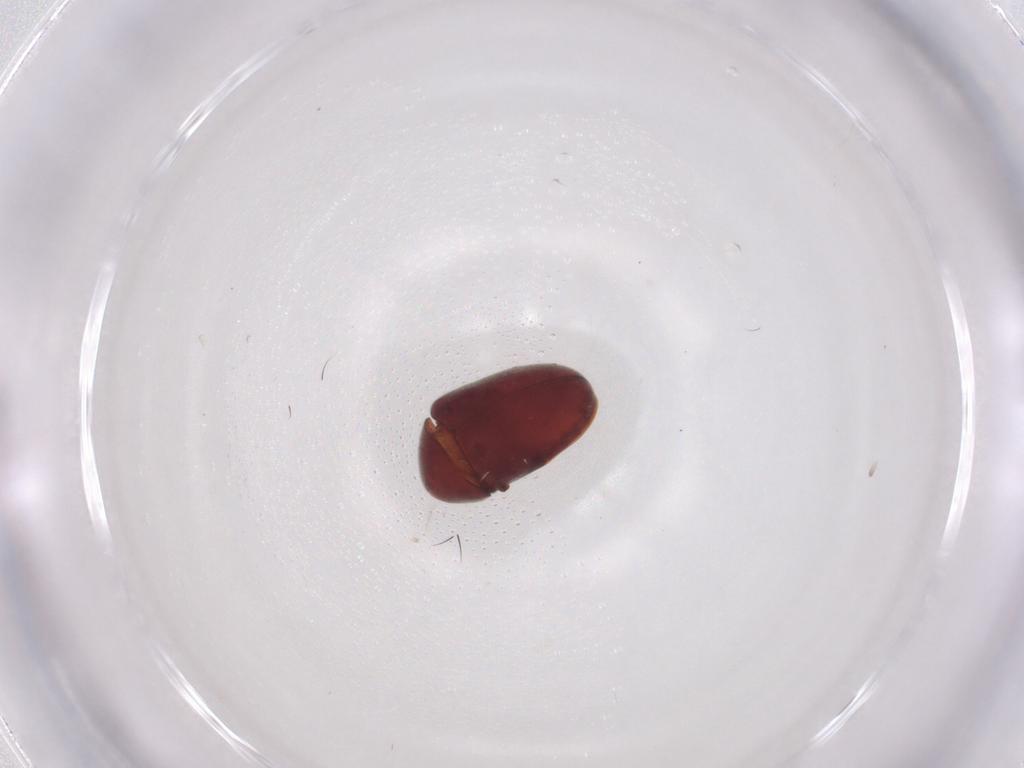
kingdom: Animalia
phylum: Arthropoda
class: Insecta
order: Coleoptera
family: Ptinidae
